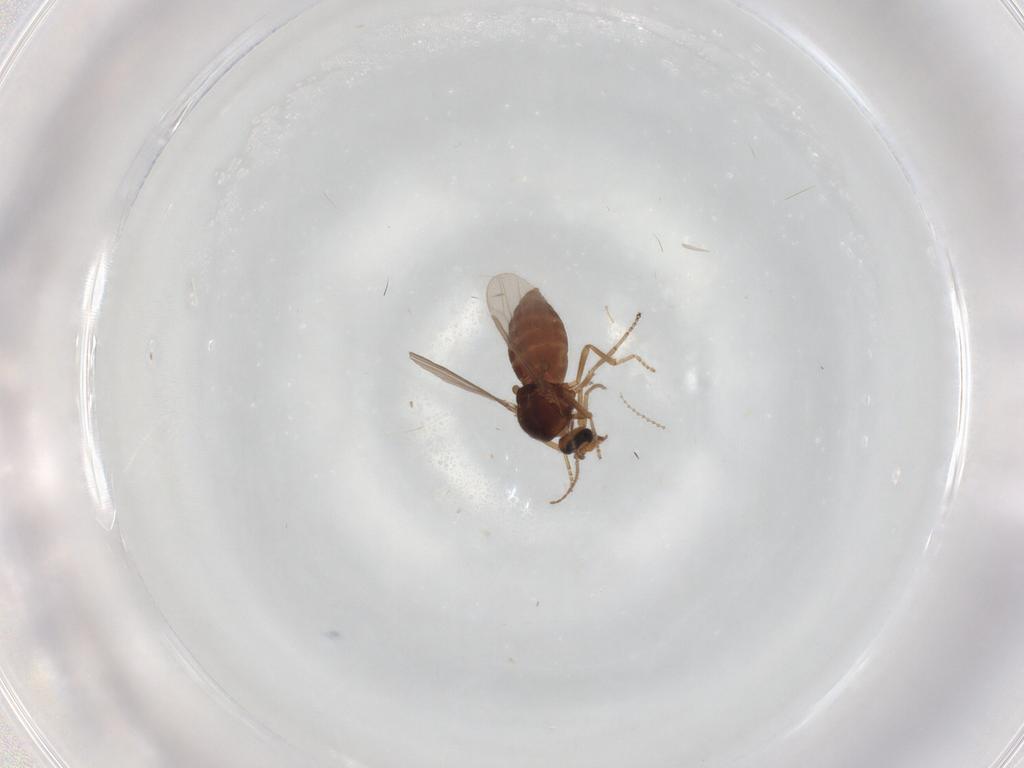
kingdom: Animalia
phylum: Arthropoda
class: Insecta
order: Diptera
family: Ceratopogonidae
